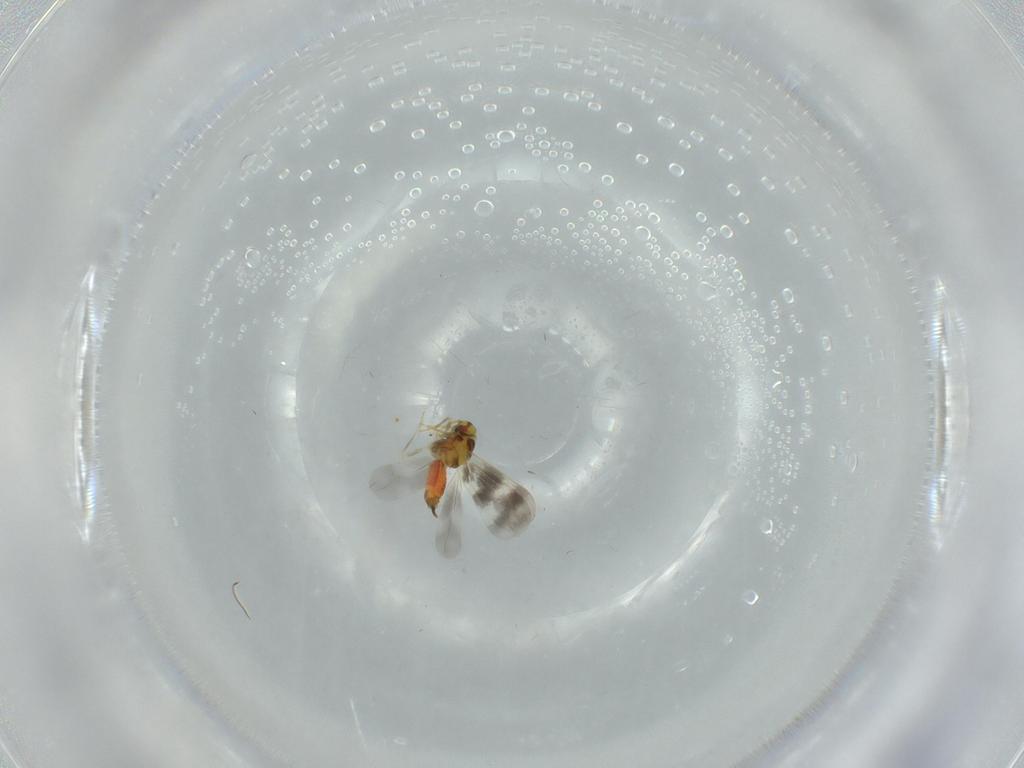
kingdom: Animalia
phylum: Arthropoda
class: Insecta
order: Hemiptera
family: Aleyrodidae
